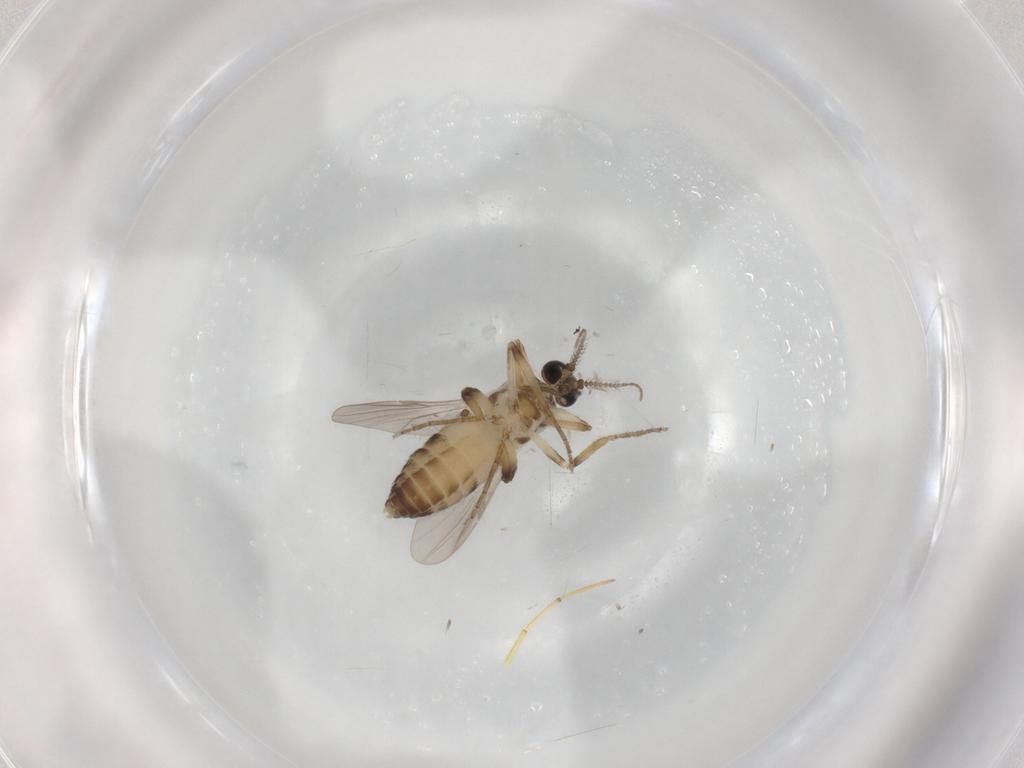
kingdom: Animalia
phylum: Arthropoda
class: Insecta
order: Diptera
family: Ceratopogonidae
